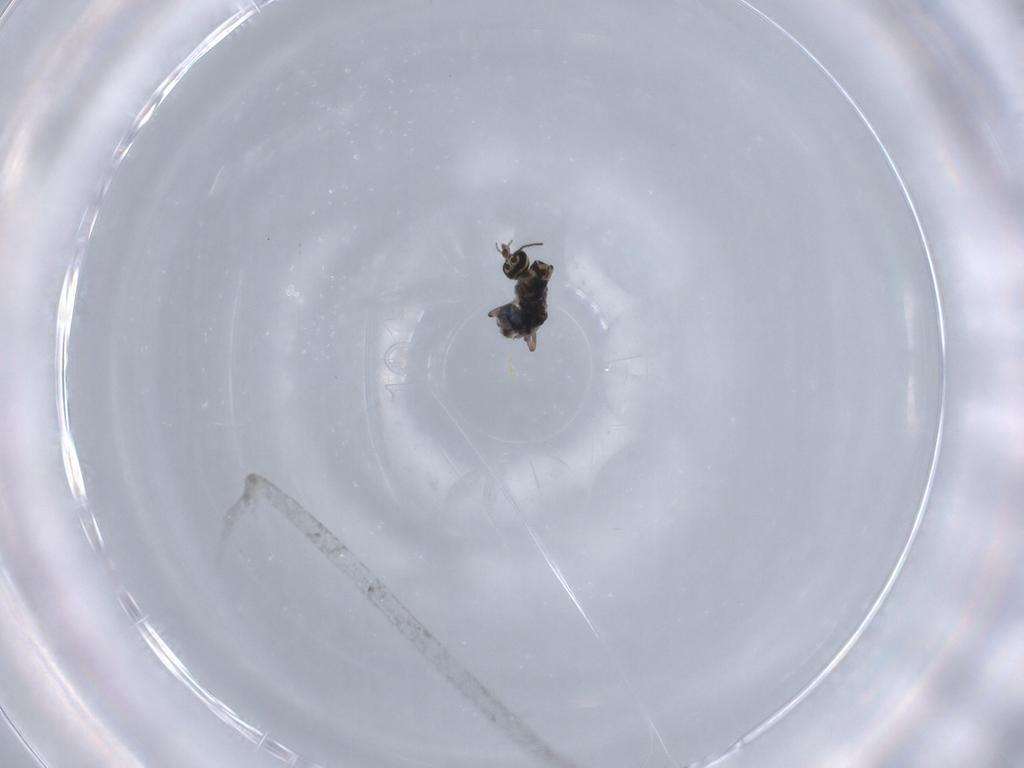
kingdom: Animalia
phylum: Arthropoda
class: Insecta
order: Diptera
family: Ceratopogonidae
